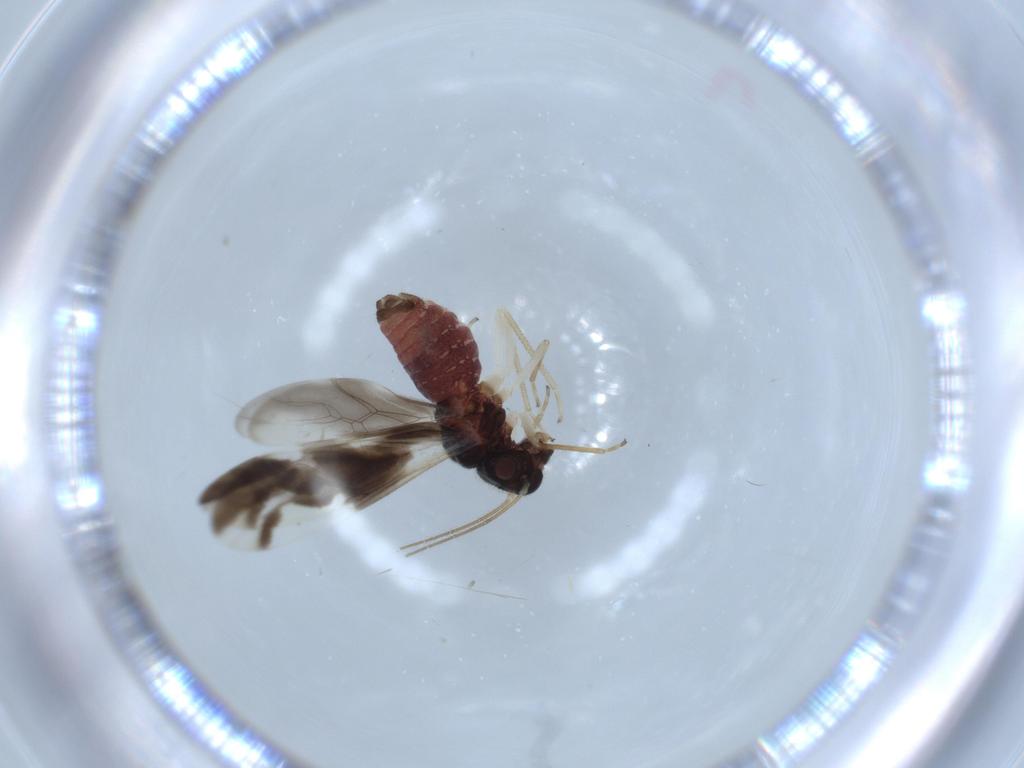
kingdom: Animalia
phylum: Arthropoda
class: Insecta
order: Psocodea
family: Caeciliusidae
